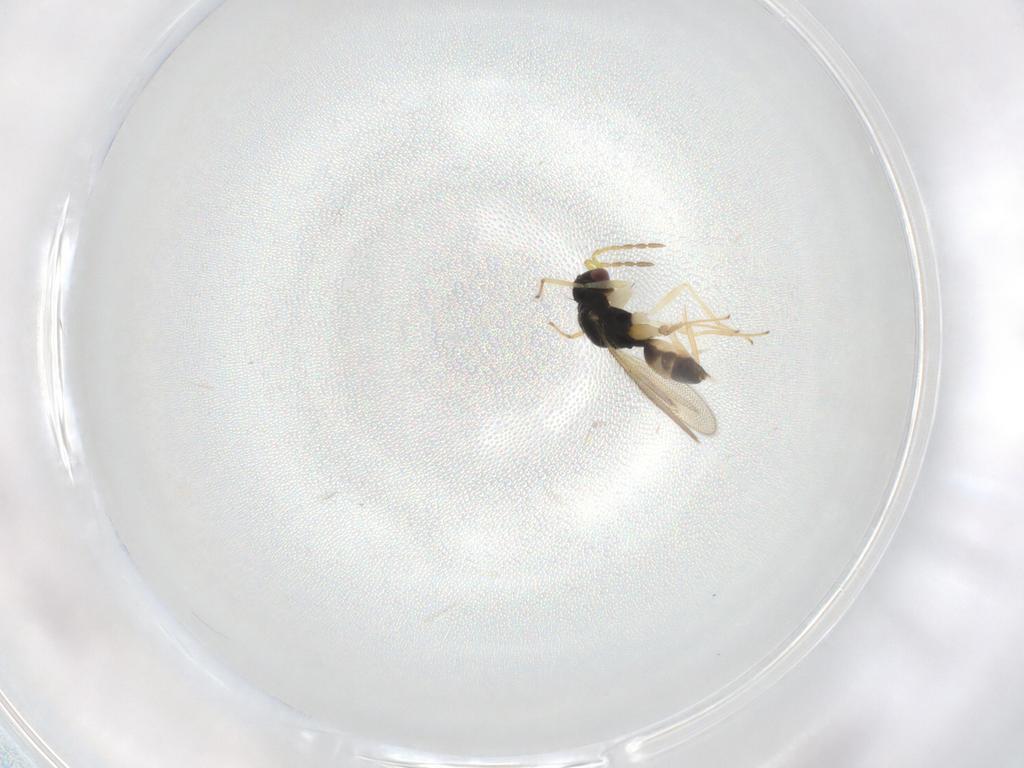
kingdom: Animalia
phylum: Arthropoda
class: Insecta
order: Hymenoptera
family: Eulophidae
